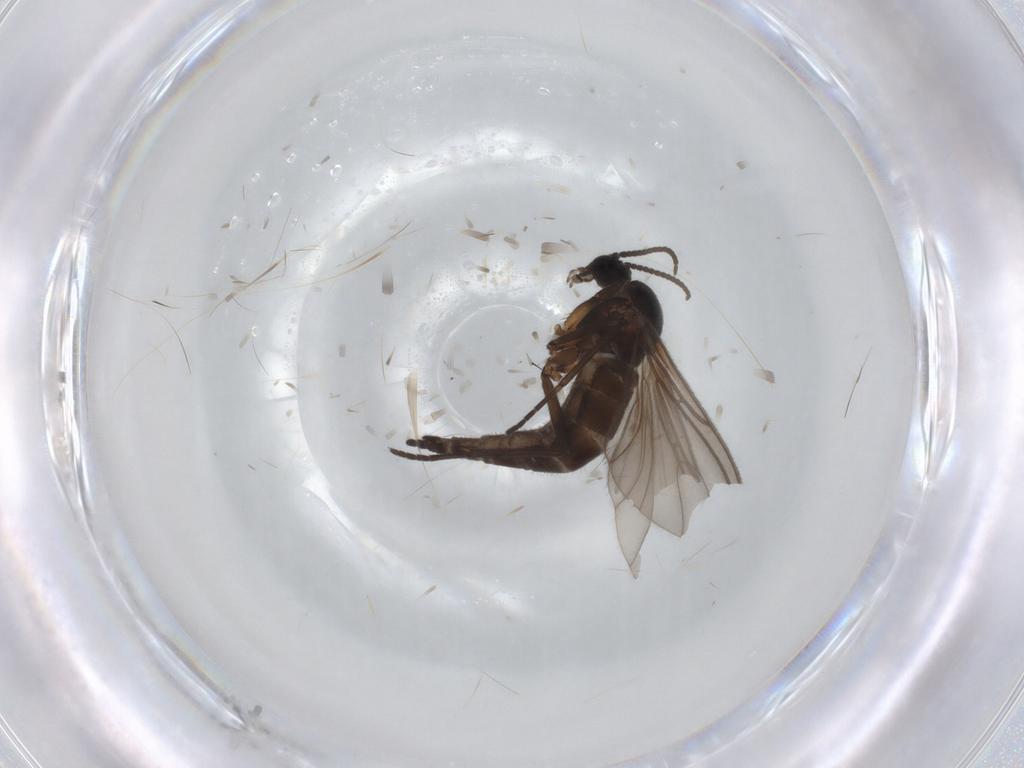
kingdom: Animalia
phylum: Arthropoda
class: Insecta
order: Diptera
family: Sciaridae
